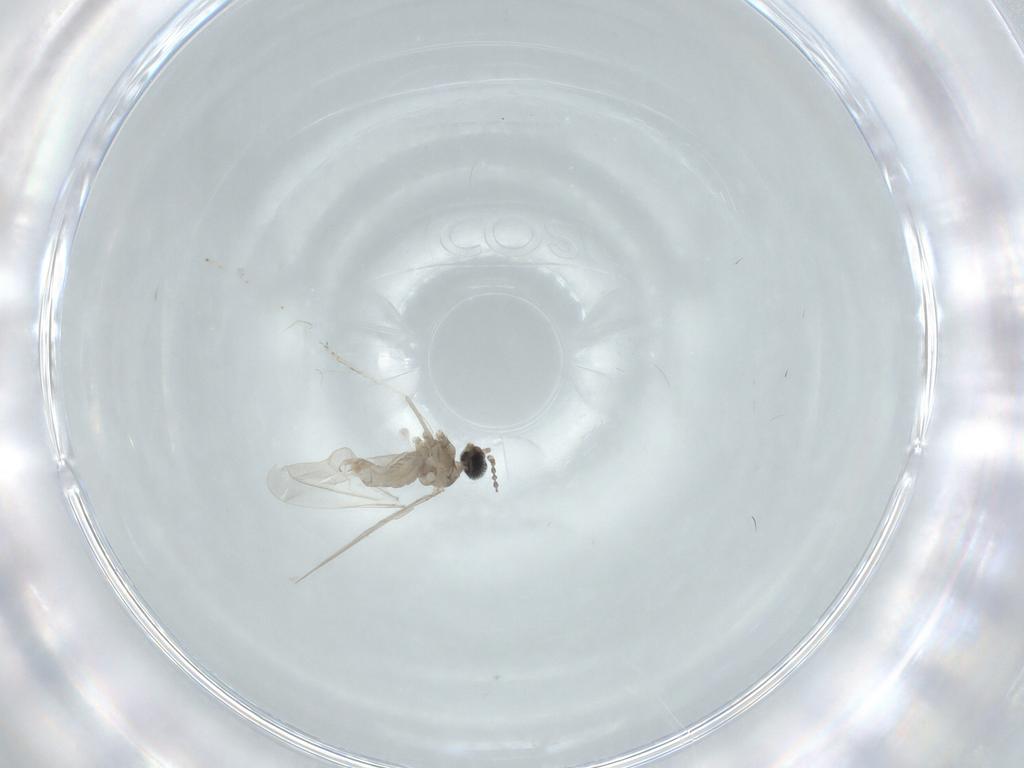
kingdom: Animalia
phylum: Arthropoda
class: Insecta
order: Diptera
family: Cecidomyiidae
